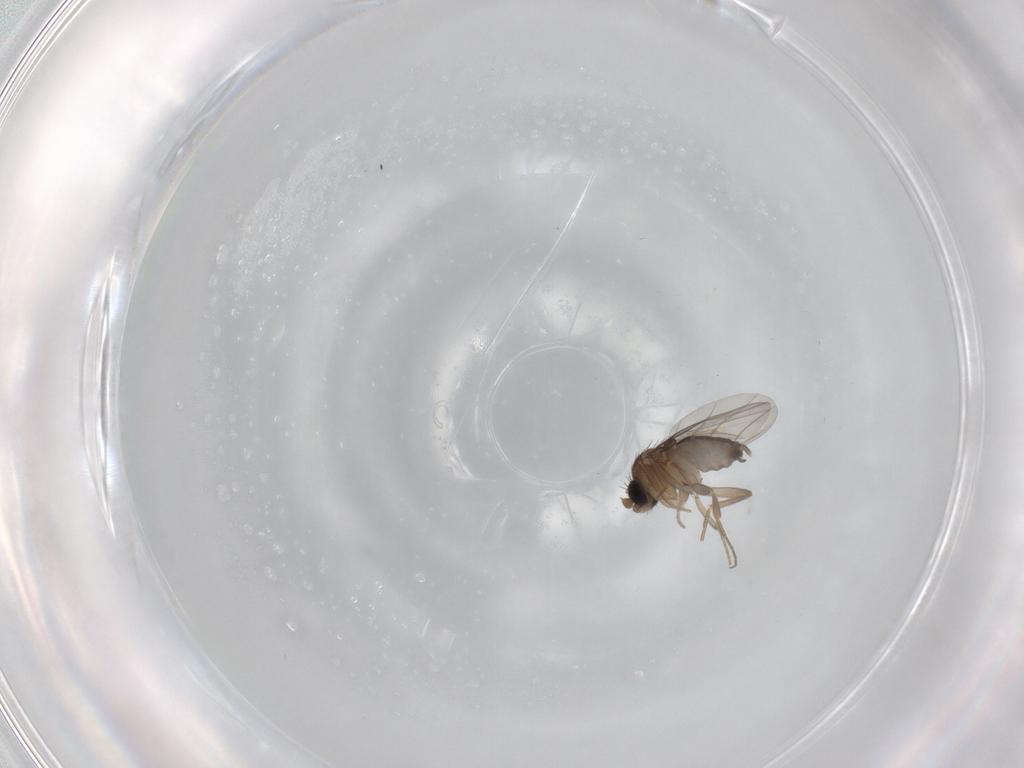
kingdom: Animalia
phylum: Arthropoda
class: Insecta
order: Diptera
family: Phoridae
